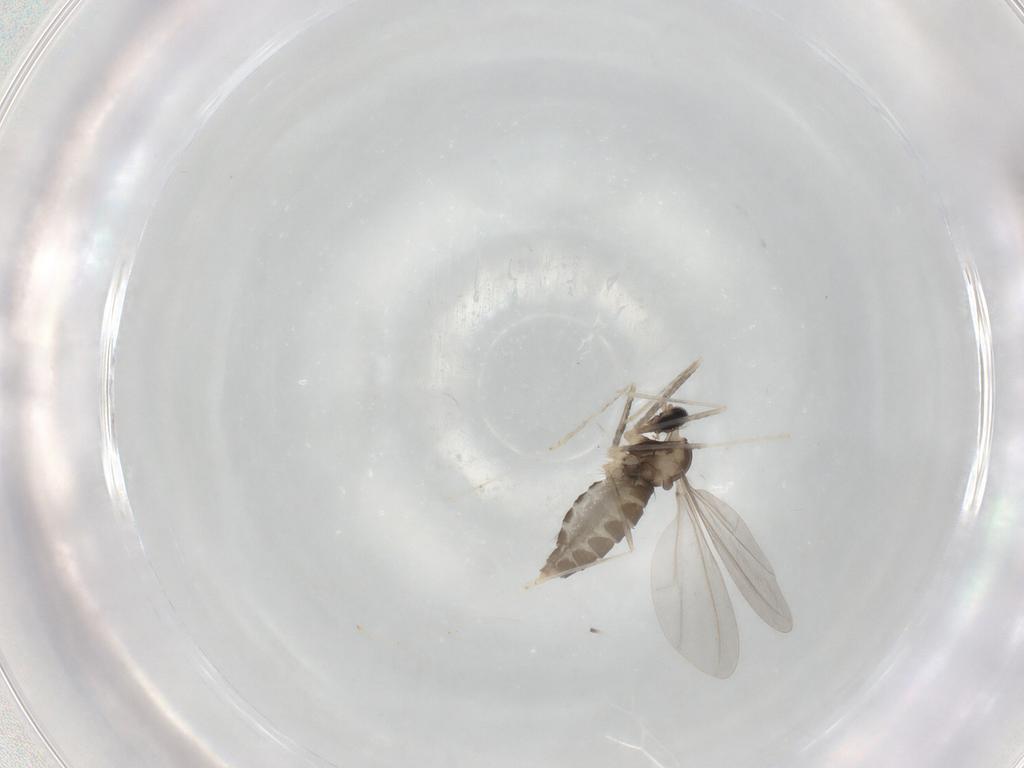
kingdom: Animalia
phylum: Arthropoda
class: Insecta
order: Diptera
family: Cecidomyiidae
